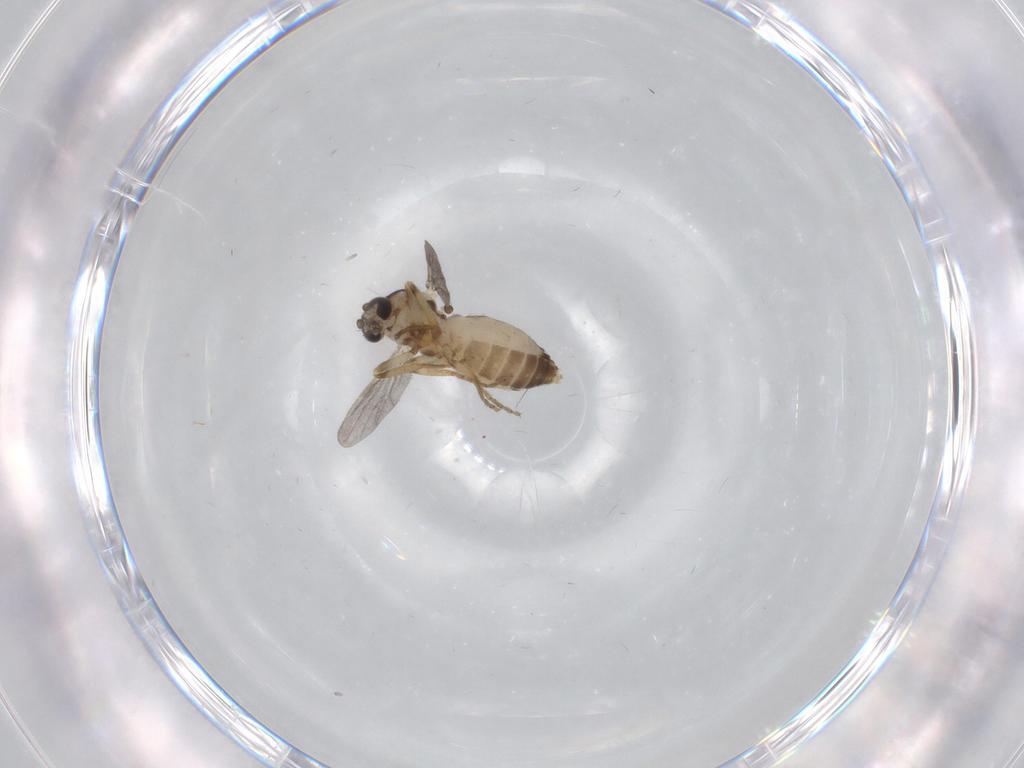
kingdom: Animalia
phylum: Arthropoda
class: Insecta
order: Diptera
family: Ceratopogonidae
